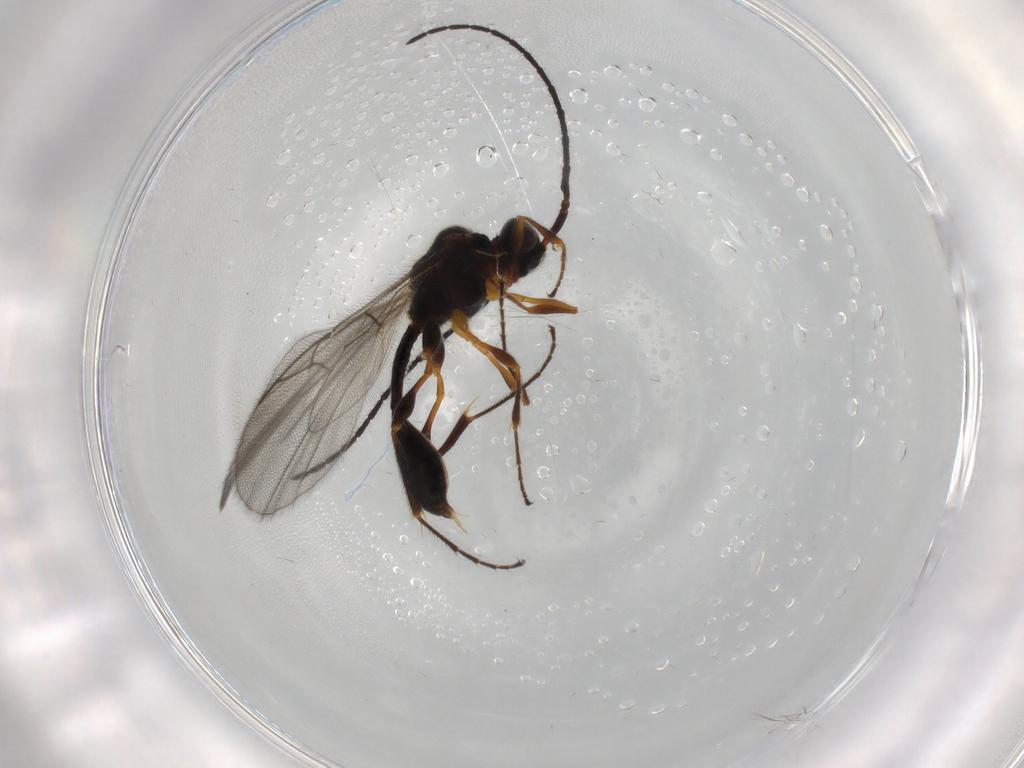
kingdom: Animalia
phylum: Arthropoda
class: Insecta
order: Hymenoptera
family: Diapriidae
